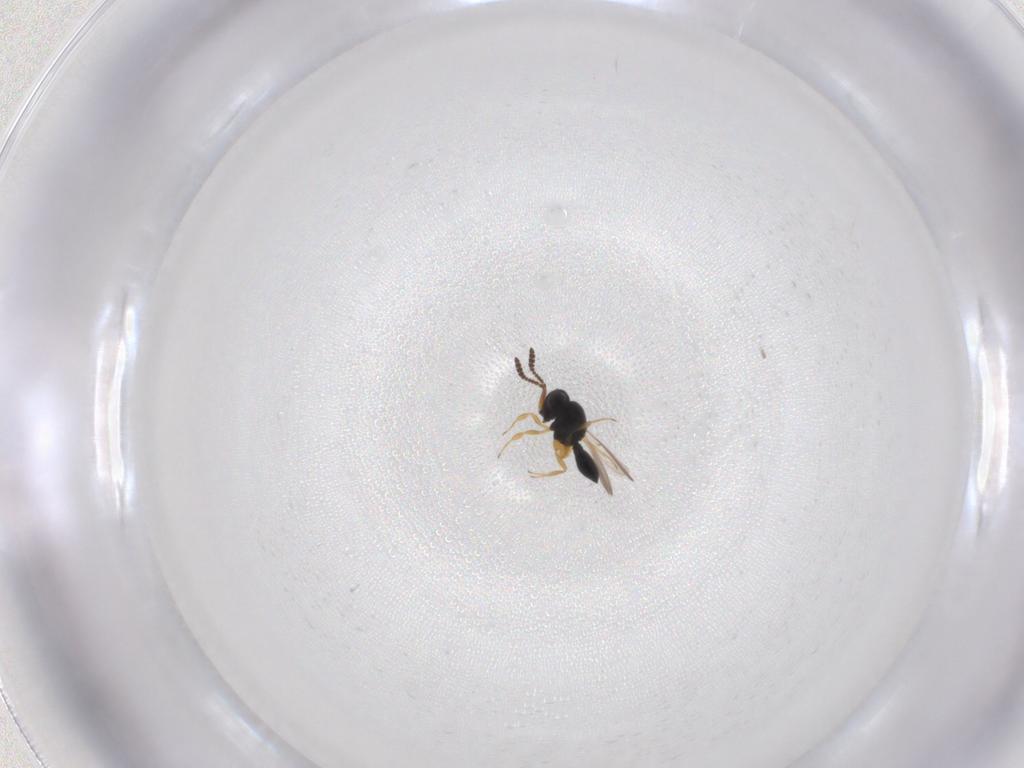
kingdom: Animalia
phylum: Arthropoda
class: Insecta
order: Hymenoptera
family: Scelionidae
